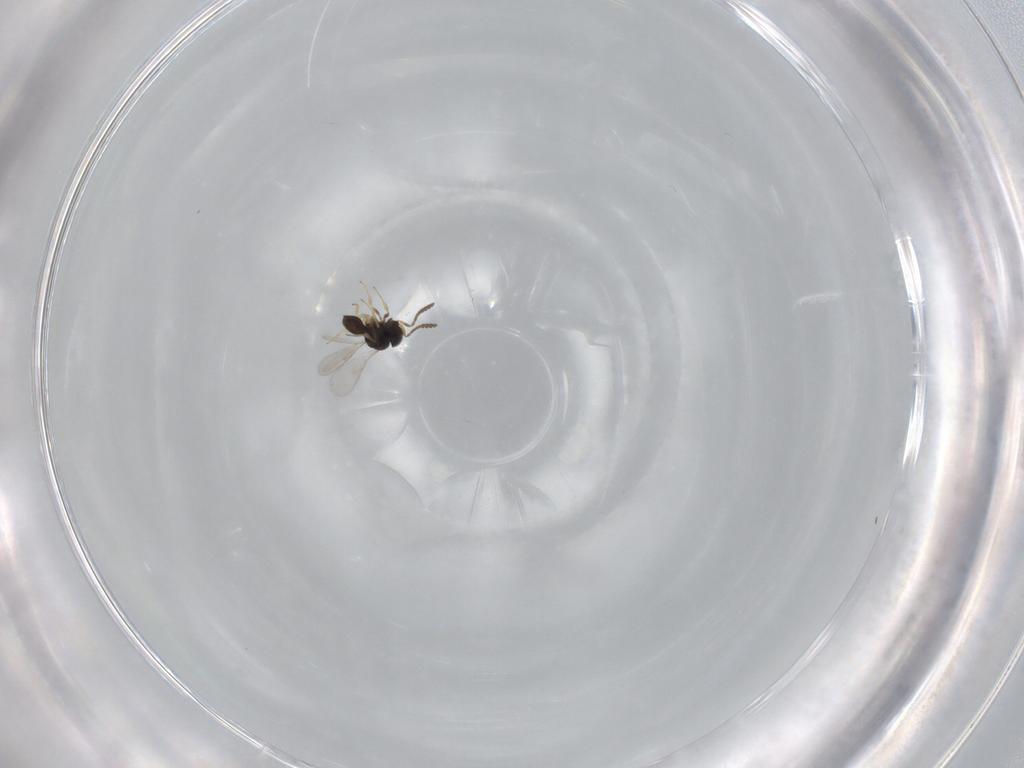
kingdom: Animalia
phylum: Arthropoda
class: Insecta
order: Hymenoptera
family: Scelionidae
